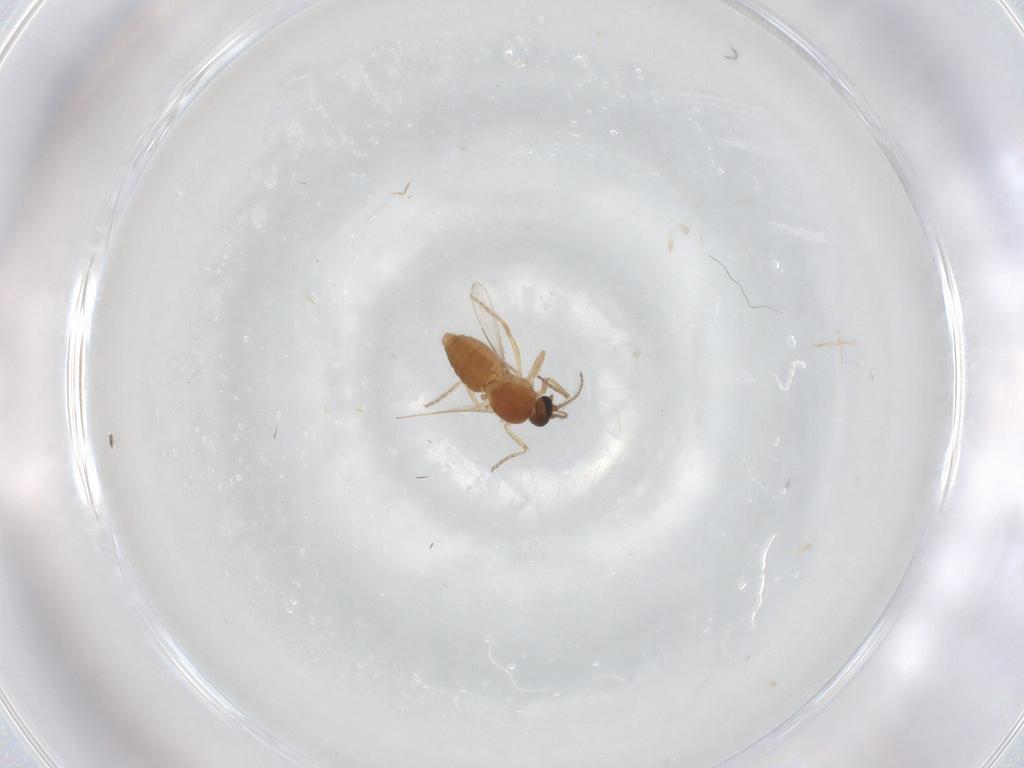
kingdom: Animalia
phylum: Arthropoda
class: Insecta
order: Diptera
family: Ceratopogonidae
